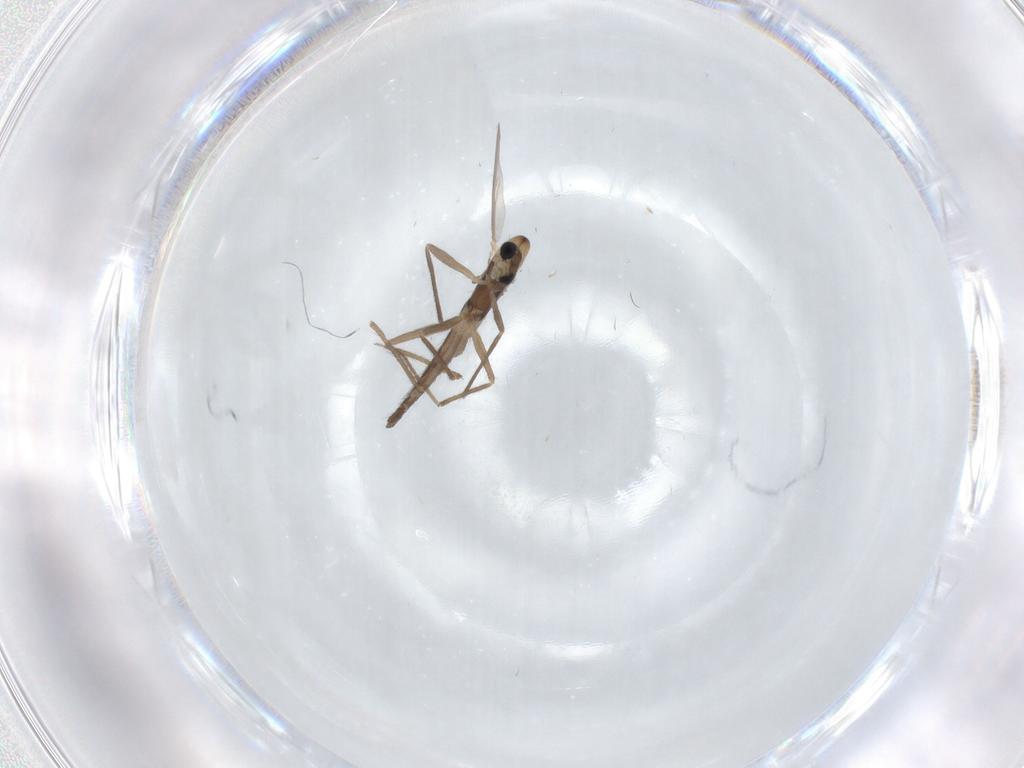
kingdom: Animalia
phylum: Arthropoda
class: Insecta
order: Diptera
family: Chironomidae
